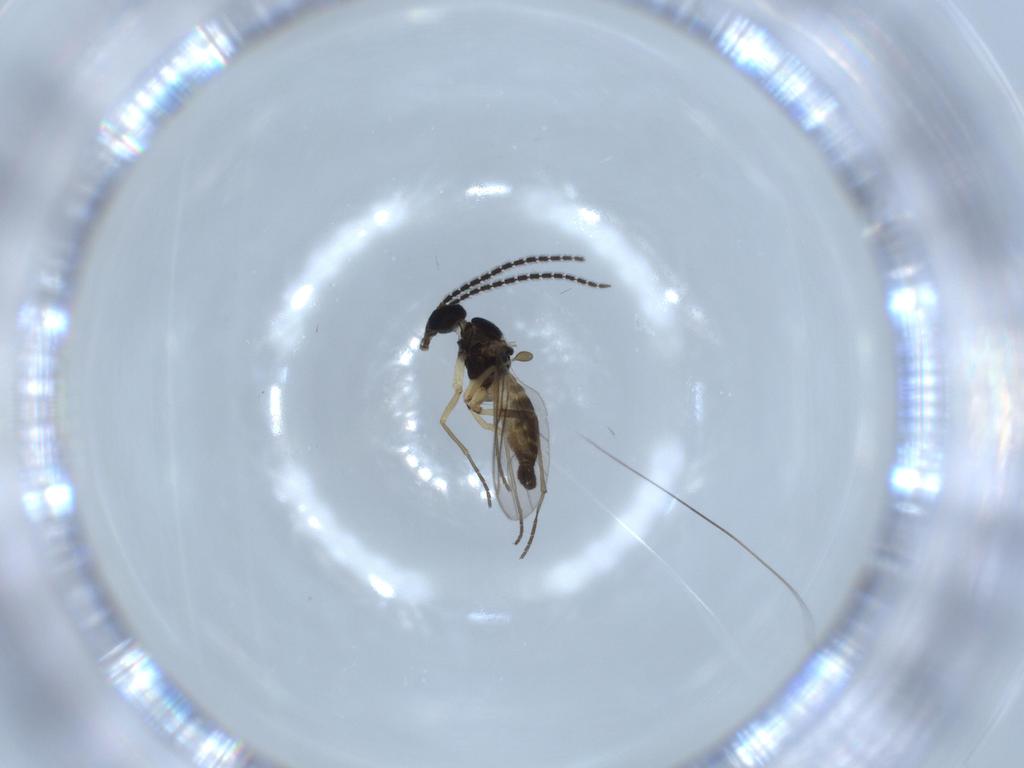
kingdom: Animalia
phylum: Arthropoda
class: Insecta
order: Diptera
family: Sciaridae
